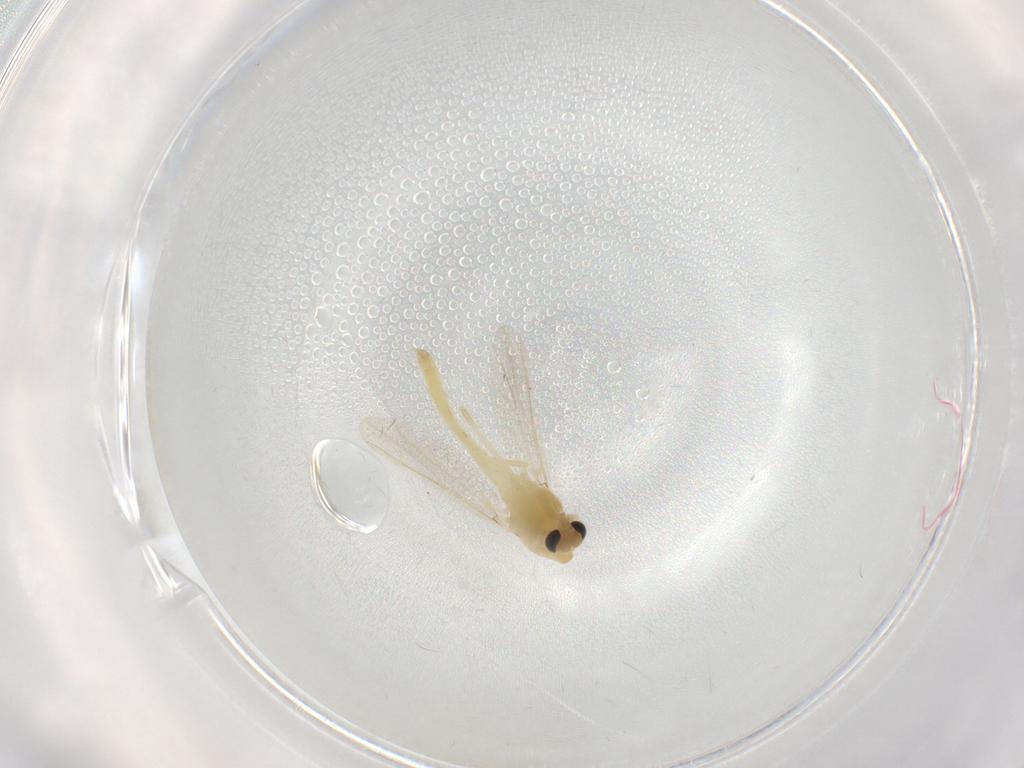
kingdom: Animalia
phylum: Arthropoda
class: Insecta
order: Diptera
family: Chironomidae
